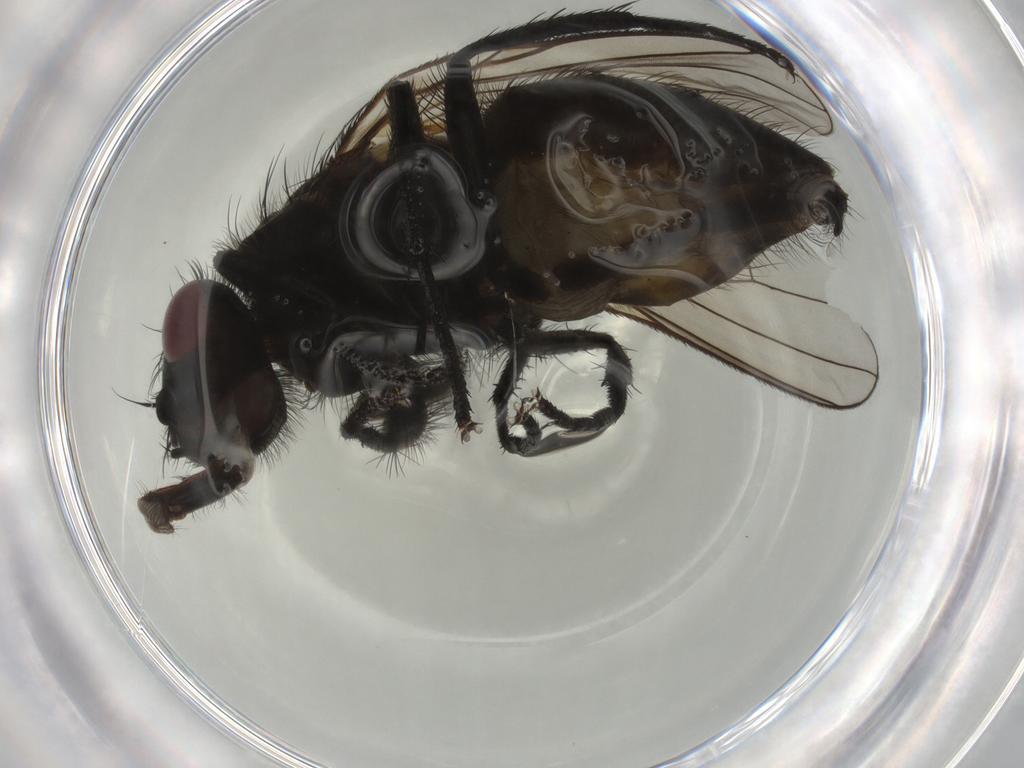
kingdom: Animalia
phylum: Arthropoda
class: Insecta
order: Diptera
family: Muscidae
